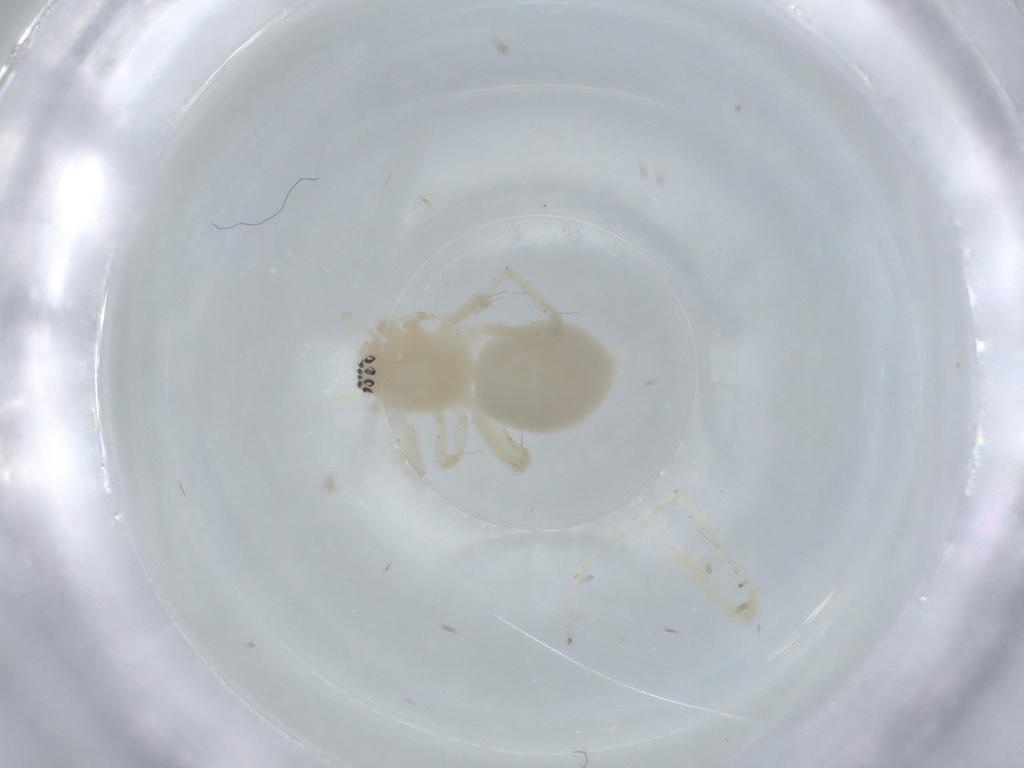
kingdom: Animalia
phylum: Arthropoda
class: Arachnida
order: Araneae
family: Anyphaenidae
